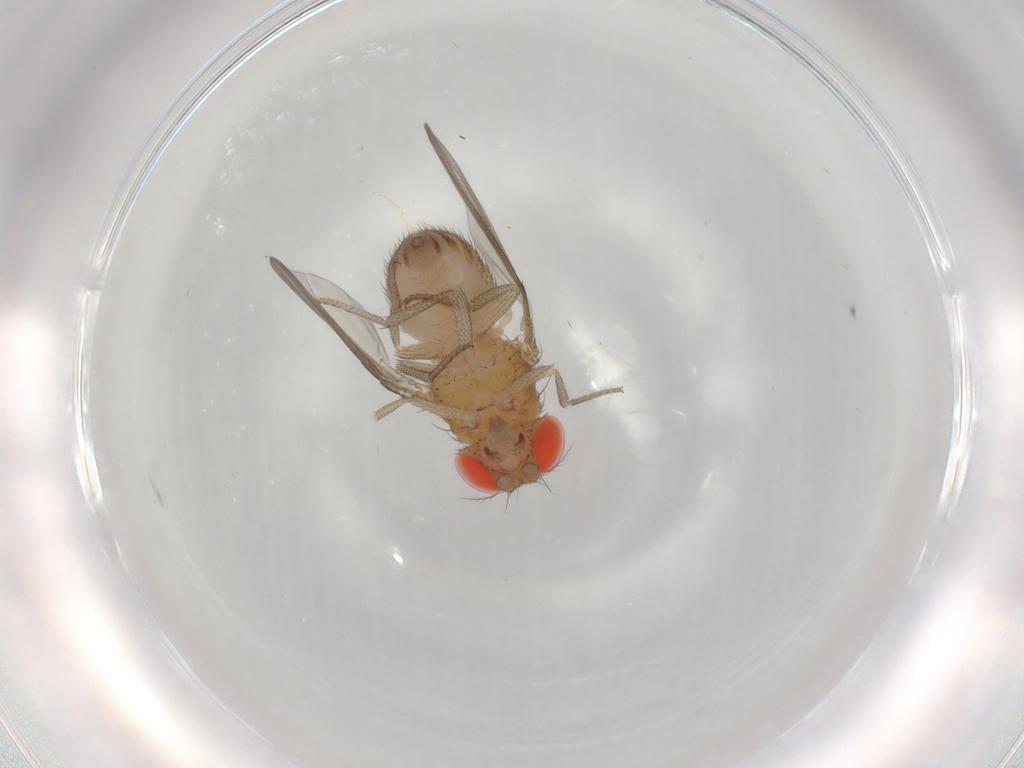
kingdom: Animalia
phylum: Arthropoda
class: Insecta
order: Diptera
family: Drosophilidae
